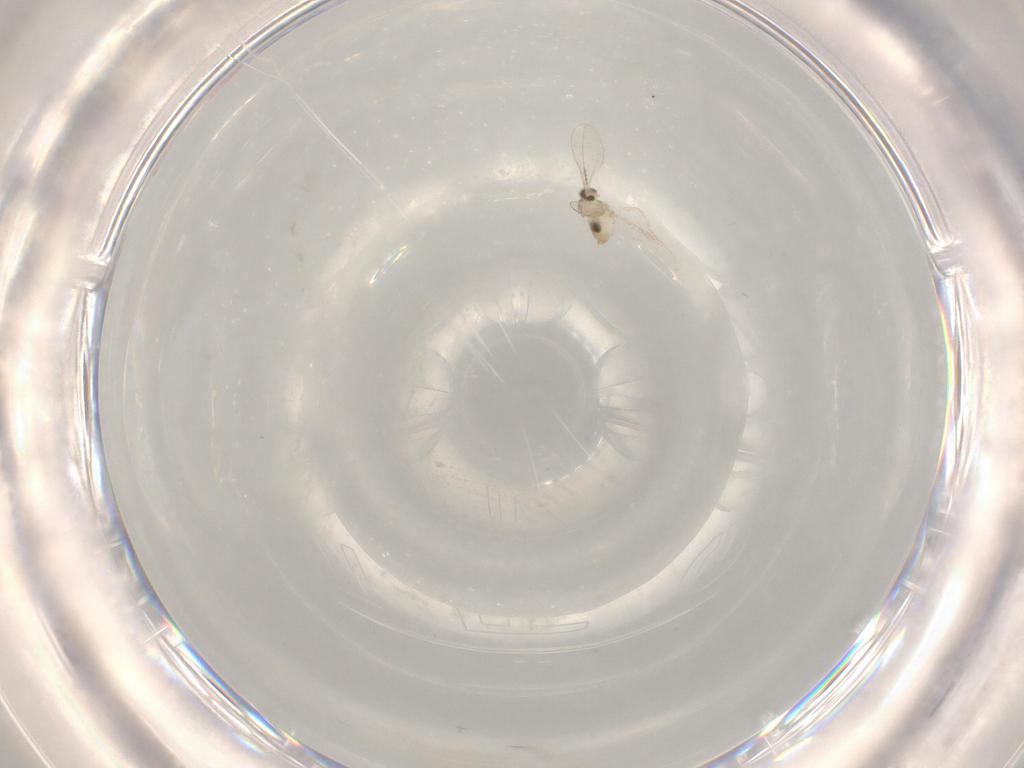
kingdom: Animalia
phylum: Arthropoda
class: Insecta
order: Diptera
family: Cecidomyiidae
